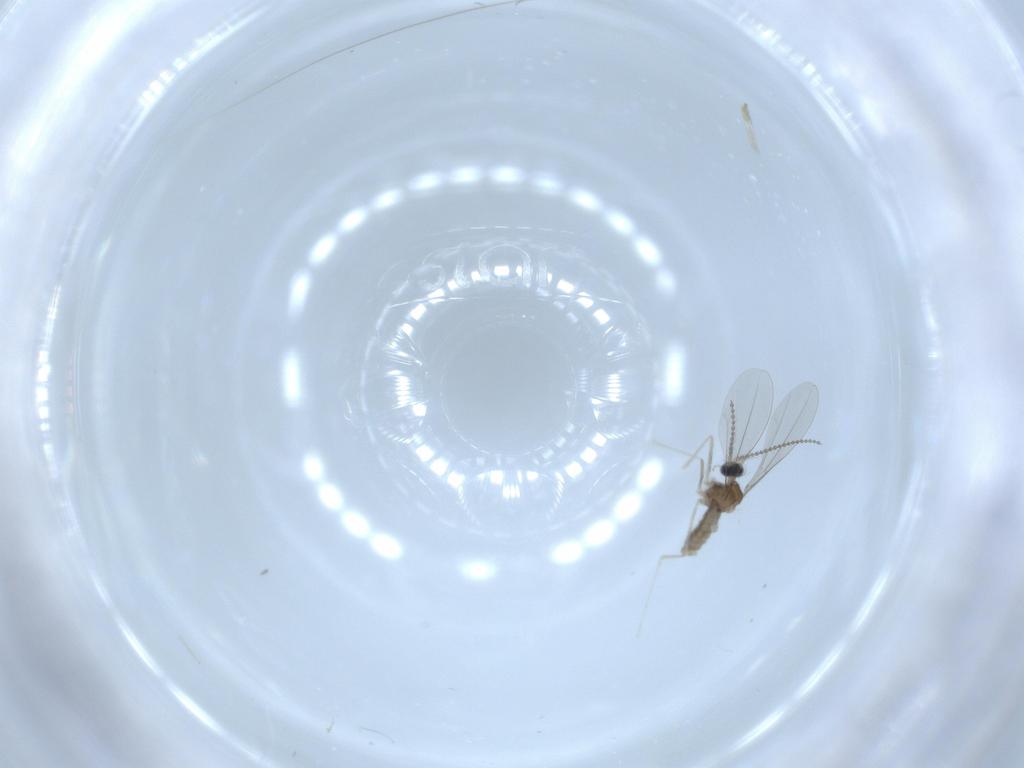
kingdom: Animalia
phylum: Arthropoda
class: Insecta
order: Diptera
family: Cecidomyiidae
